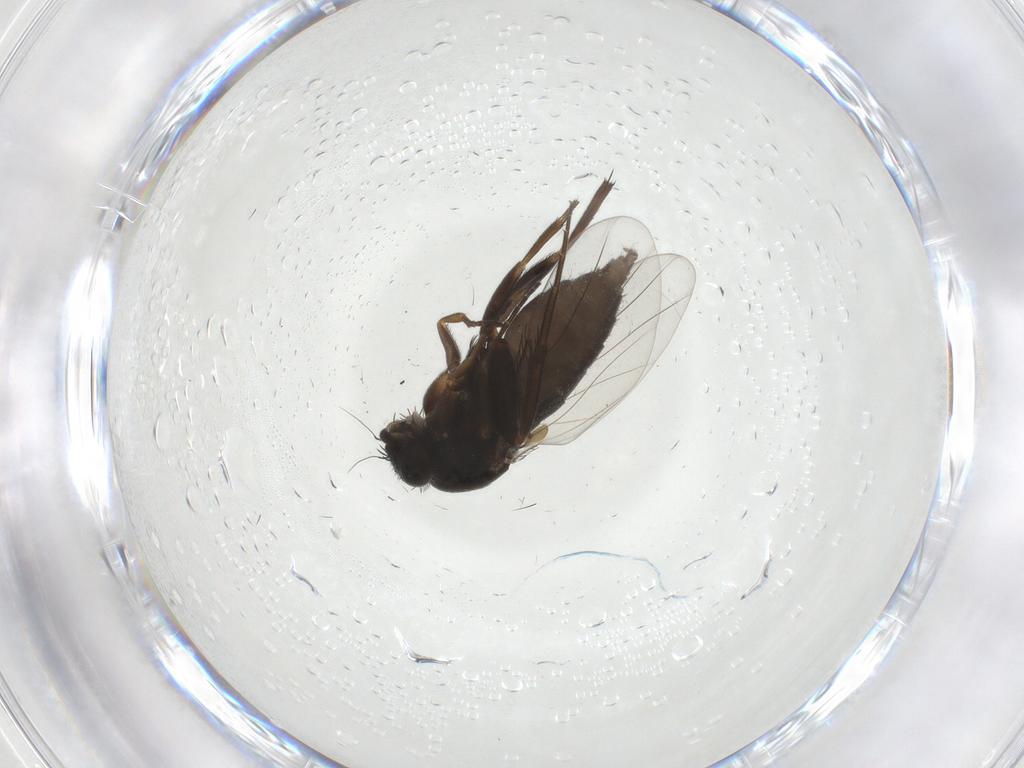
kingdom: Animalia
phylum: Arthropoda
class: Insecta
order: Diptera
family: Phoridae
